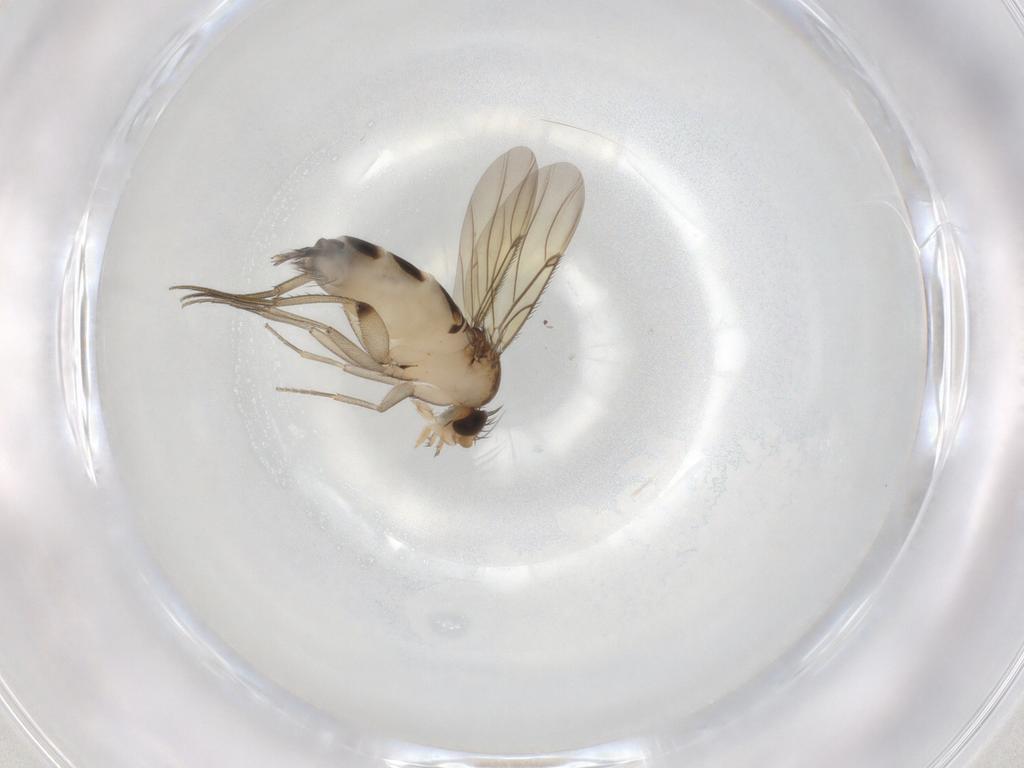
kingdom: Animalia
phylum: Arthropoda
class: Insecta
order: Diptera
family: Phoridae
